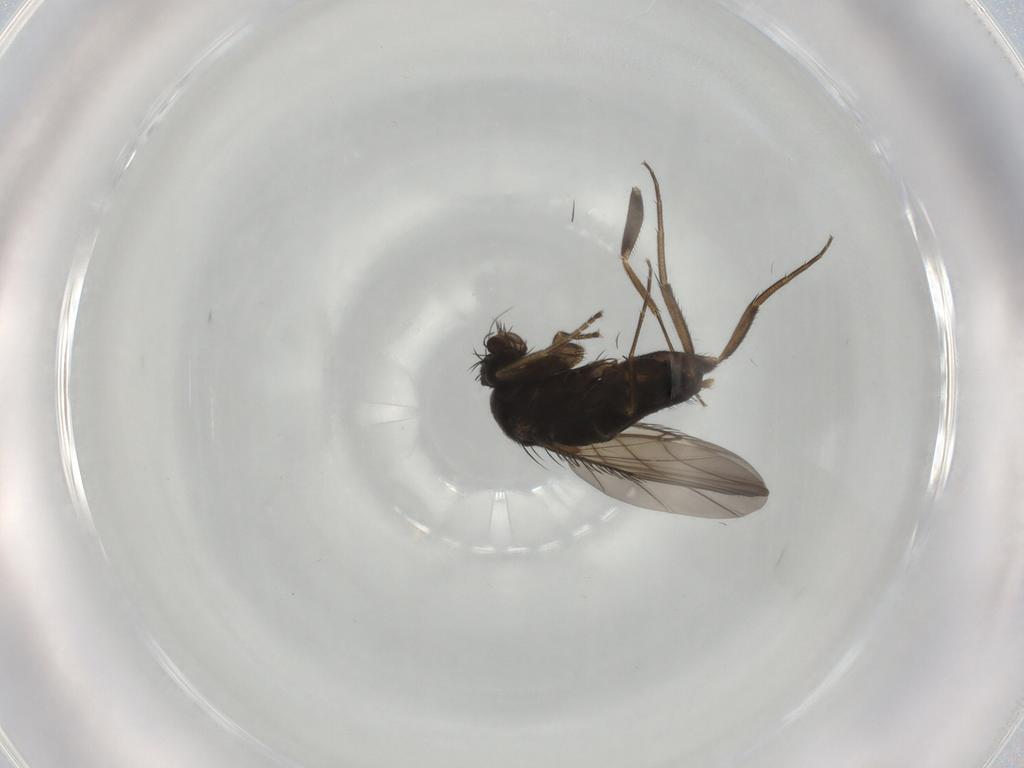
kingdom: Animalia
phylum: Arthropoda
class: Insecta
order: Diptera
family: Phoridae
